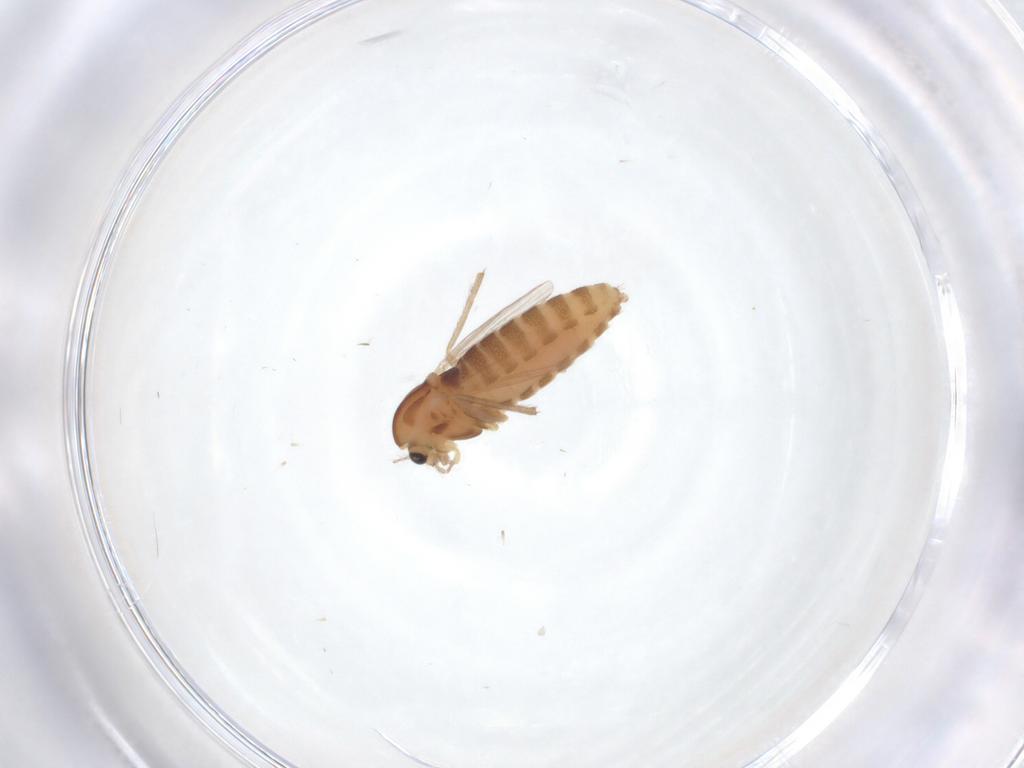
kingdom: Animalia
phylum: Arthropoda
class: Insecta
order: Diptera
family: Chironomidae
